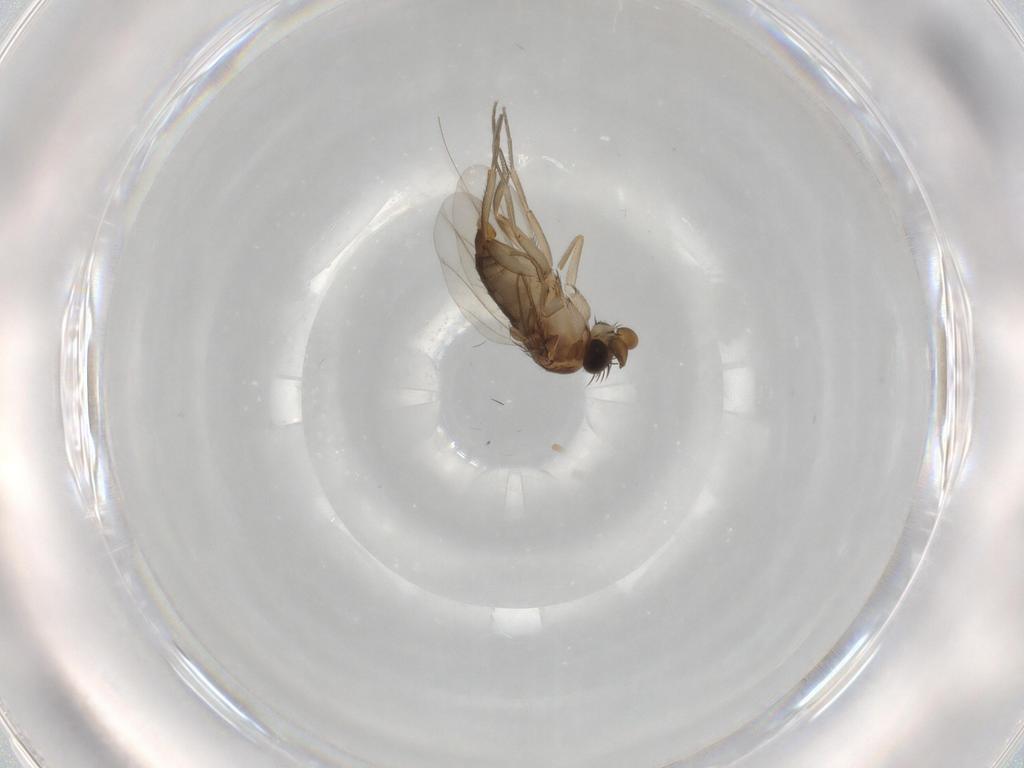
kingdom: Animalia
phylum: Arthropoda
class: Insecta
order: Diptera
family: Phoridae
